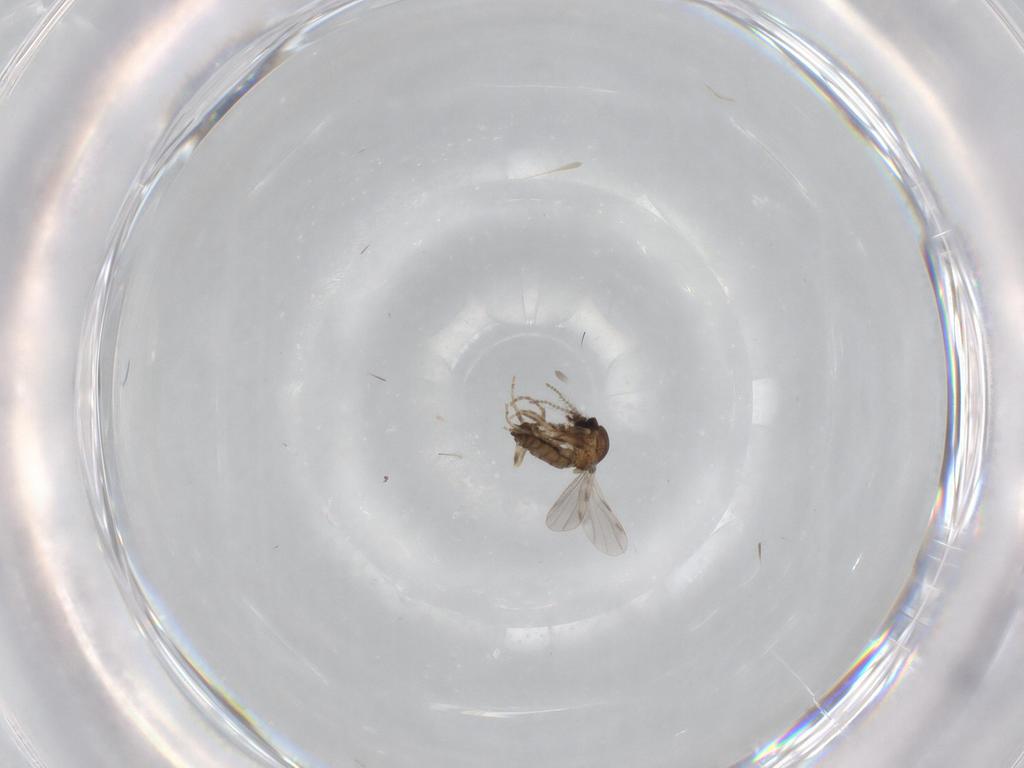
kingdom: Animalia
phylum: Arthropoda
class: Insecta
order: Diptera
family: Ceratopogonidae
